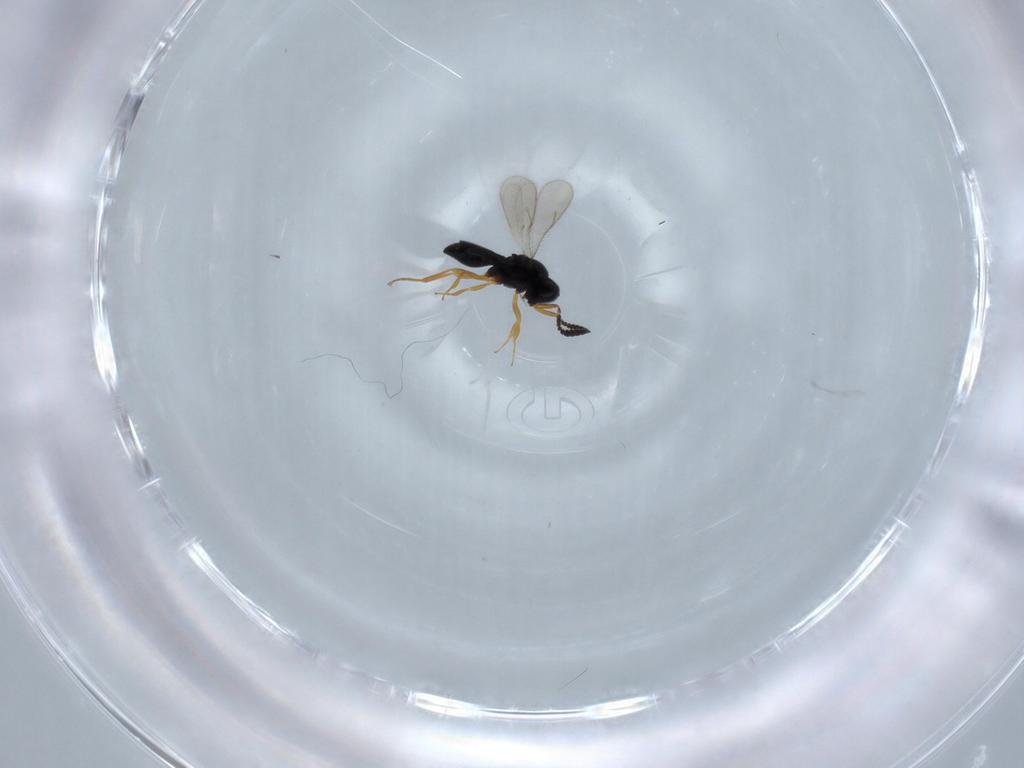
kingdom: Animalia
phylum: Arthropoda
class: Insecta
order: Hymenoptera
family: Scelionidae
